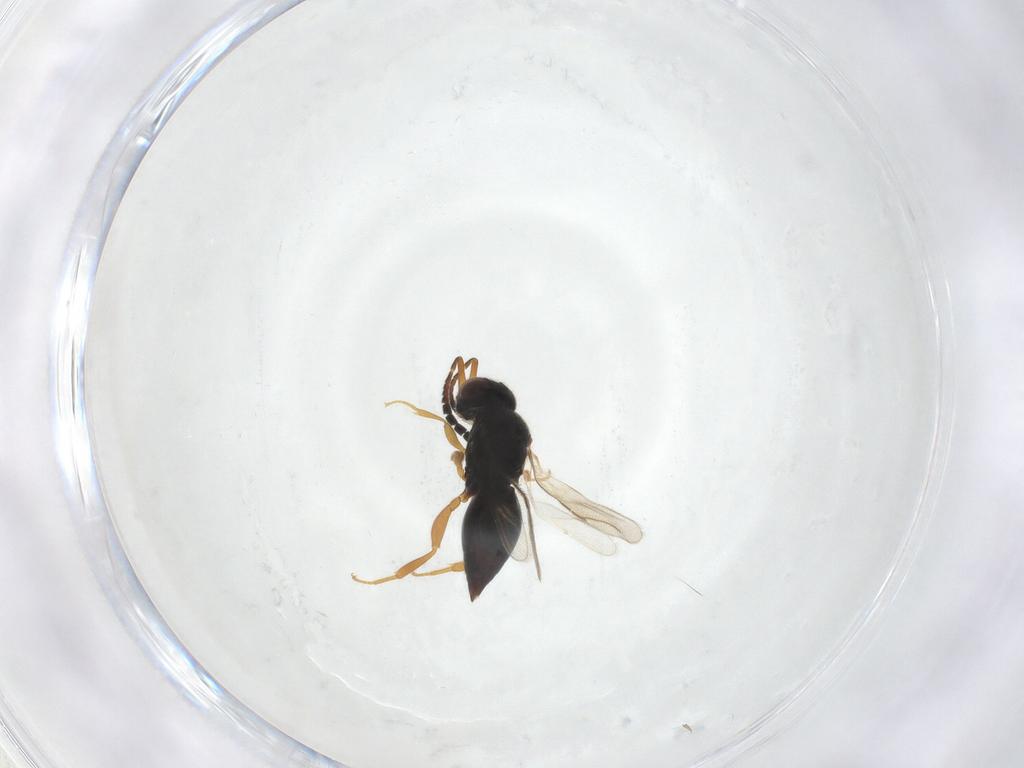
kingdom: Animalia
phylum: Arthropoda
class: Insecta
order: Hymenoptera
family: Ceraphronidae
